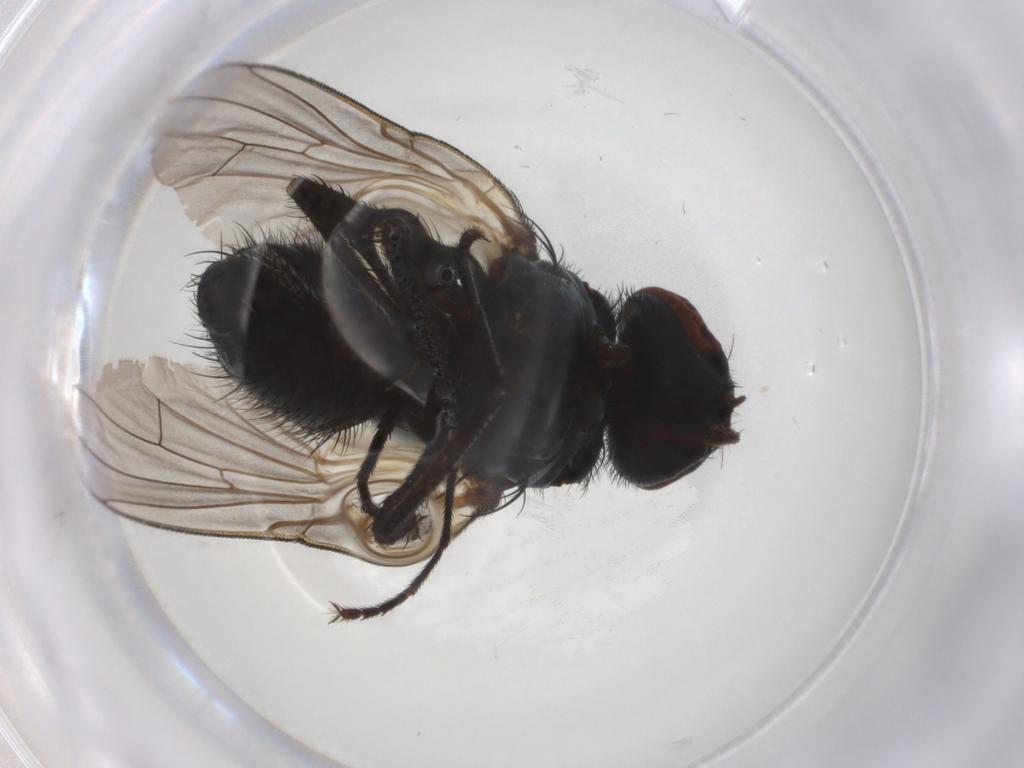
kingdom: Animalia
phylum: Arthropoda
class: Insecta
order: Diptera
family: Muscidae
